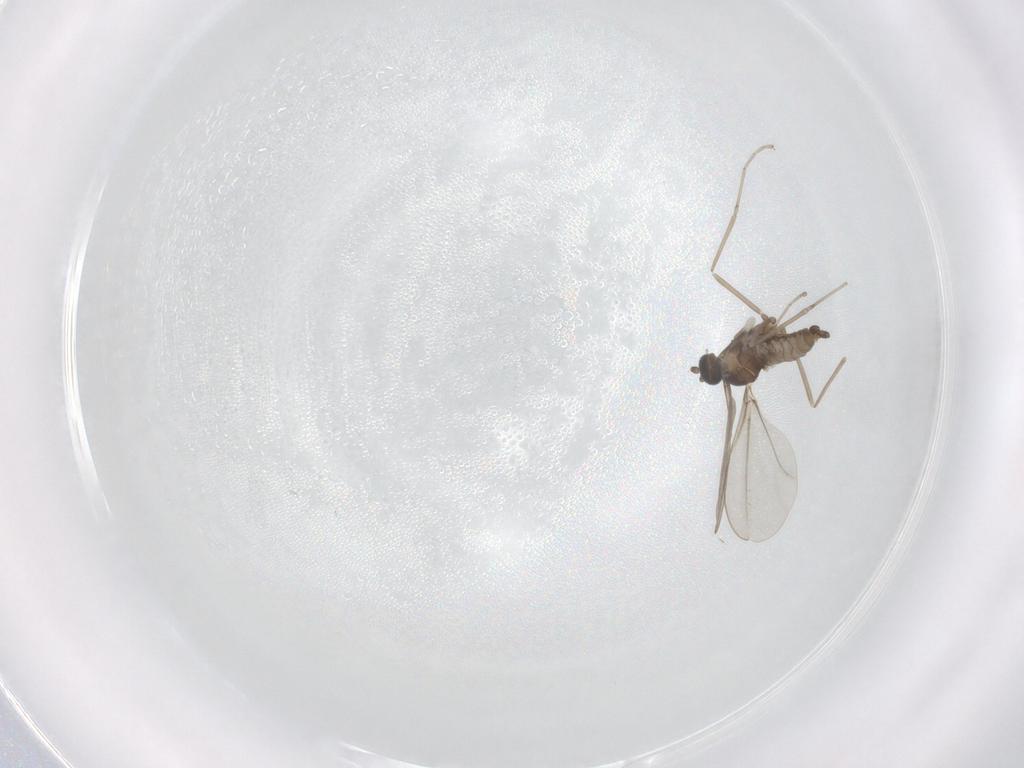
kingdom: Animalia
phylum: Arthropoda
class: Insecta
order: Diptera
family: Cecidomyiidae
